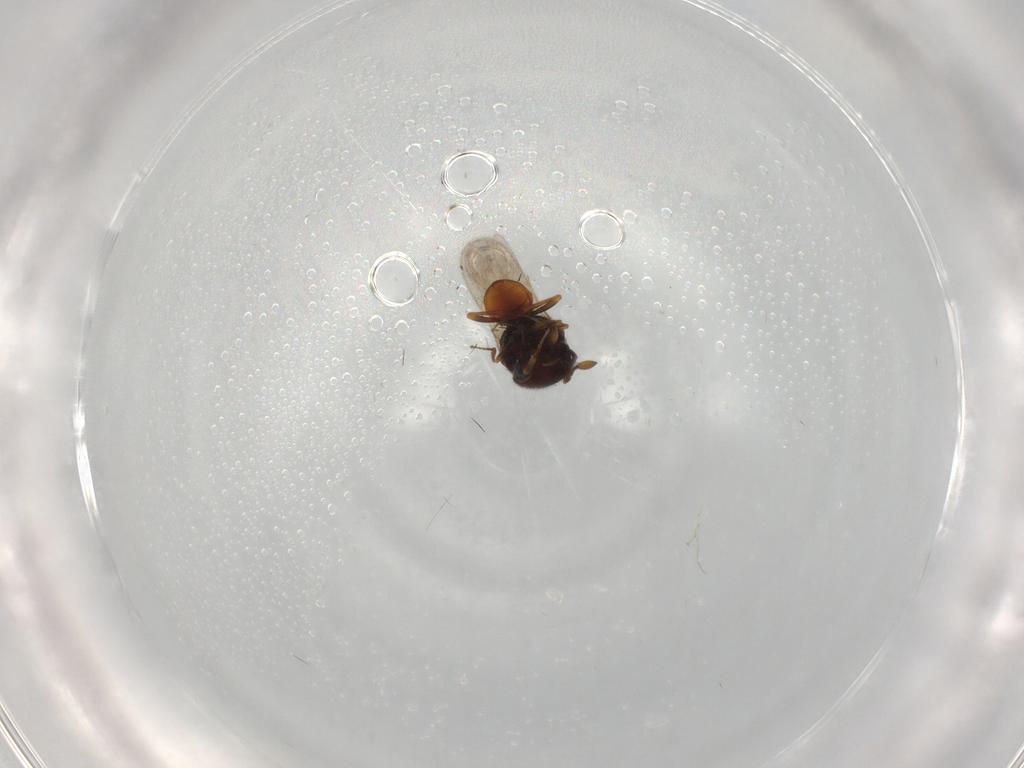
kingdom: Animalia
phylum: Arthropoda
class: Insecta
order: Hymenoptera
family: Scelionidae
